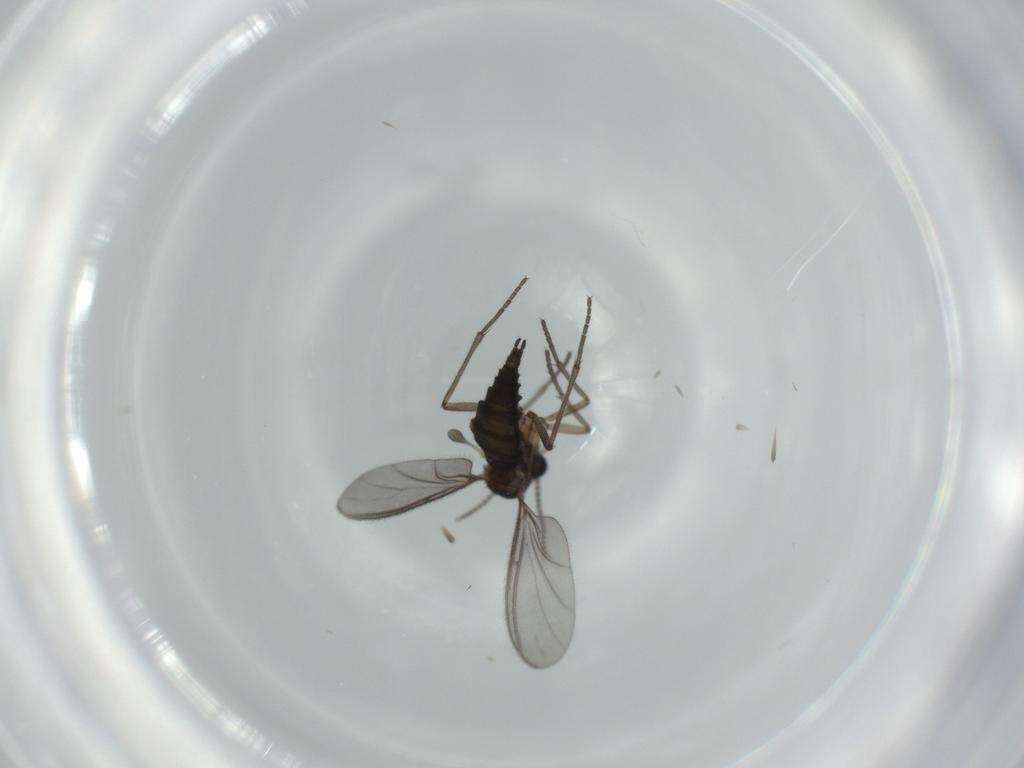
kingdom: Animalia
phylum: Arthropoda
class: Insecta
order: Diptera
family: Sciaridae
